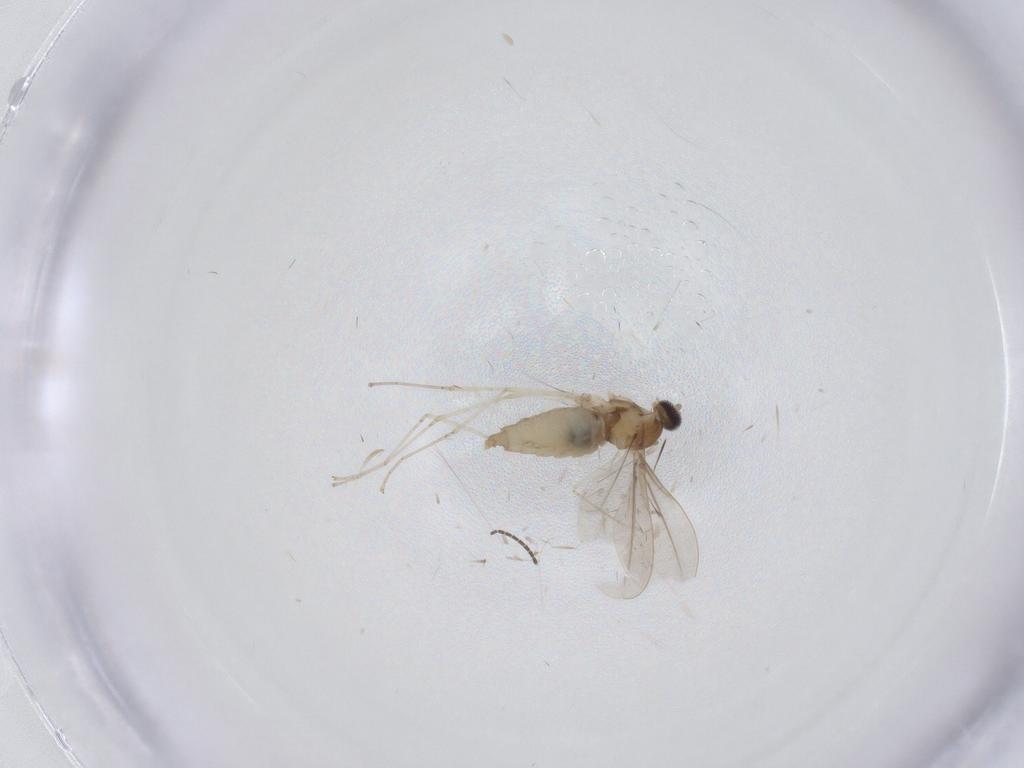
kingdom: Animalia
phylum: Arthropoda
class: Insecta
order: Diptera
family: Cecidomyiidae
